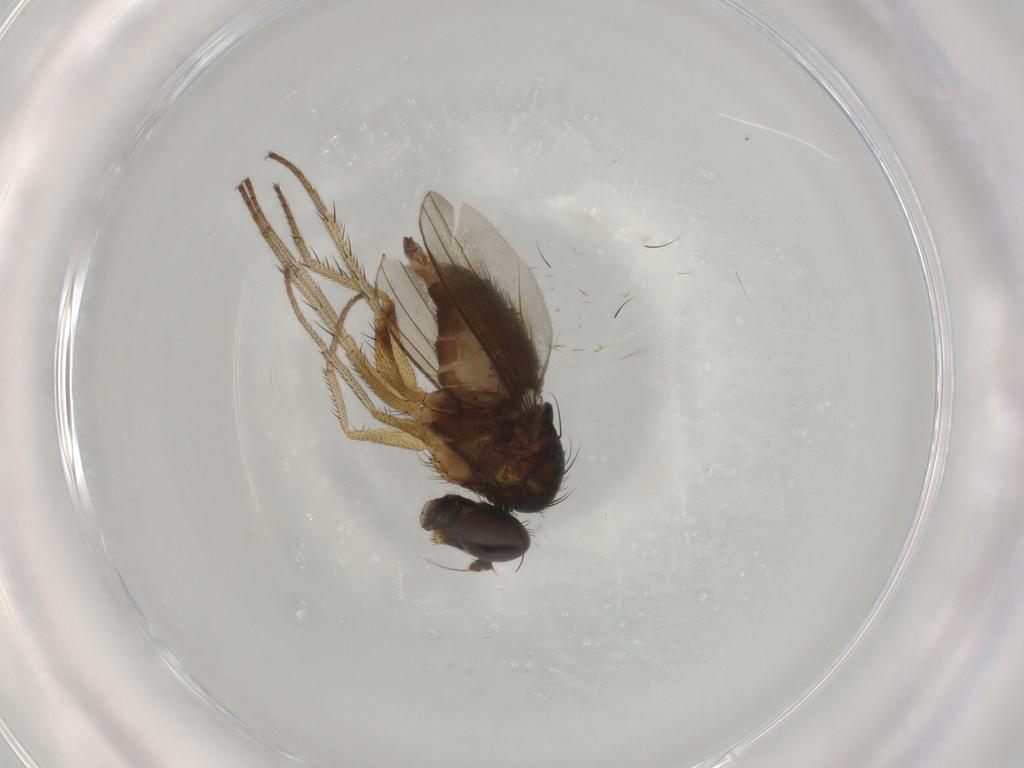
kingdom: Animalia
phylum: Arthropoda
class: Insecta
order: Diptera
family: Dolichopodidae
